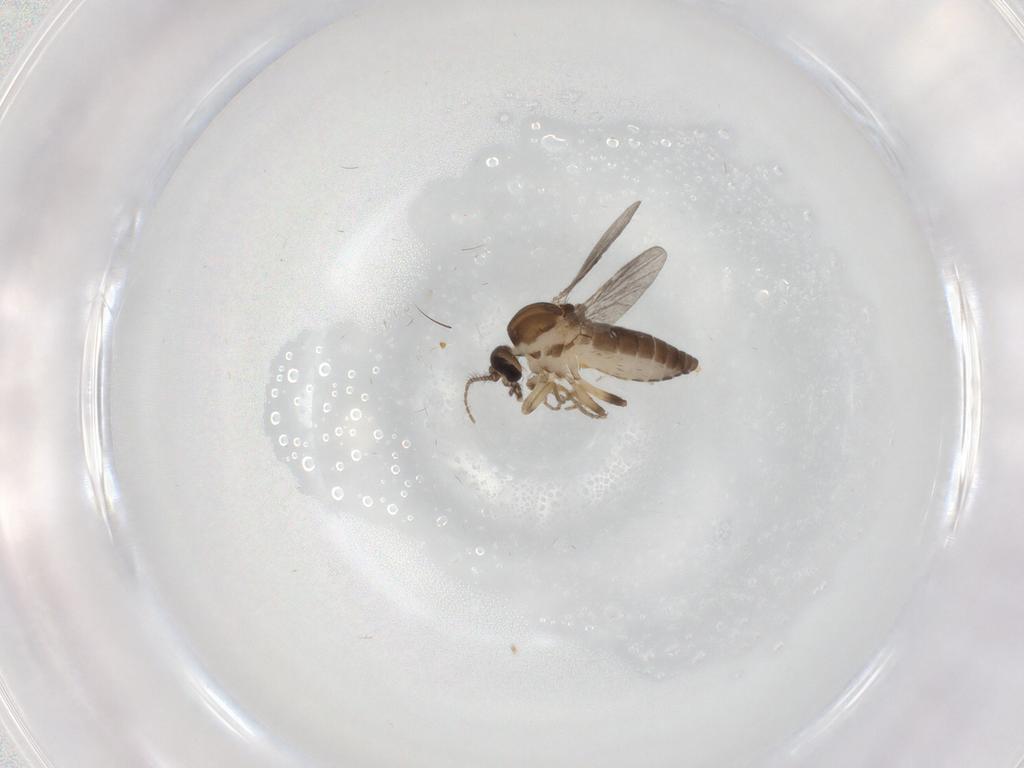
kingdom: Animalia
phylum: Arthropoda
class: Insecta
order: Diptera
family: Ceratopogonidae
